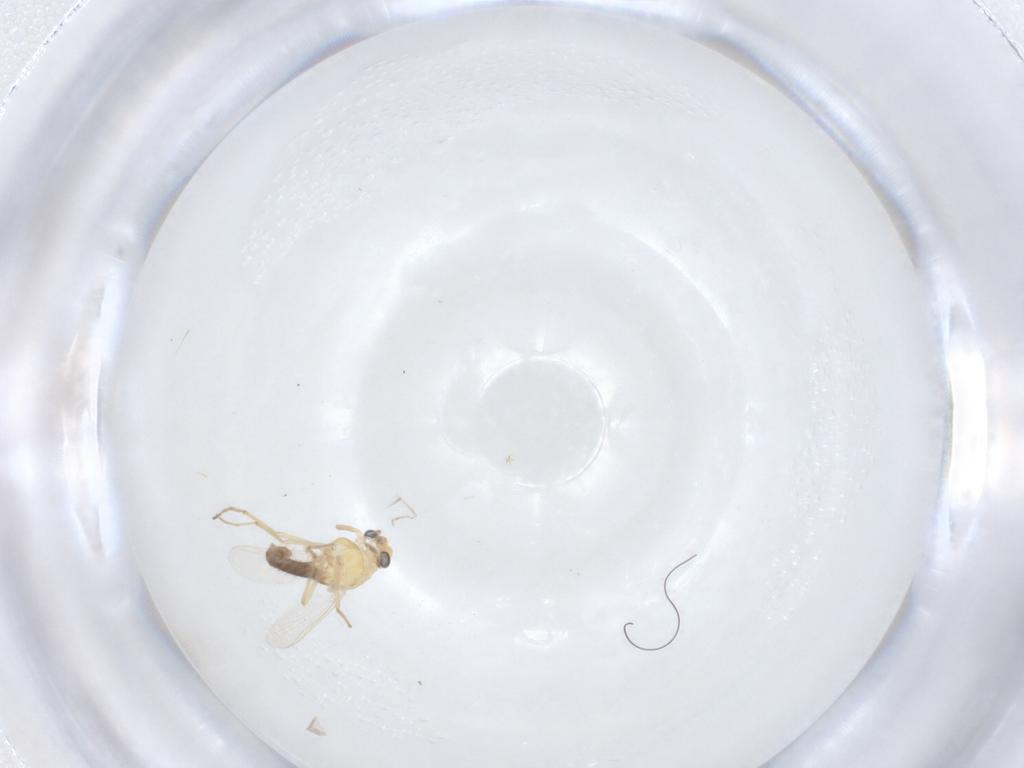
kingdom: Animalia
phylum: Arthropoda
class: Insecta
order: Diptera
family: Chironomidae
